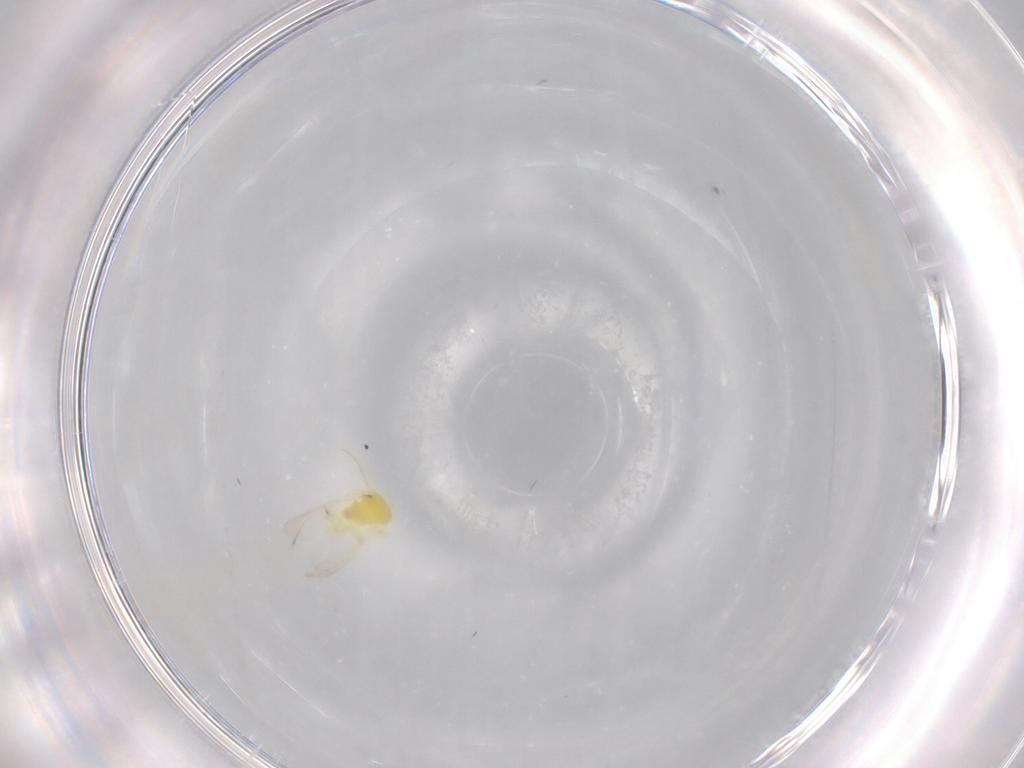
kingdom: Animalia
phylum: Arthropoda
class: Insecta
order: Hemiptera
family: Aleyrodidae
